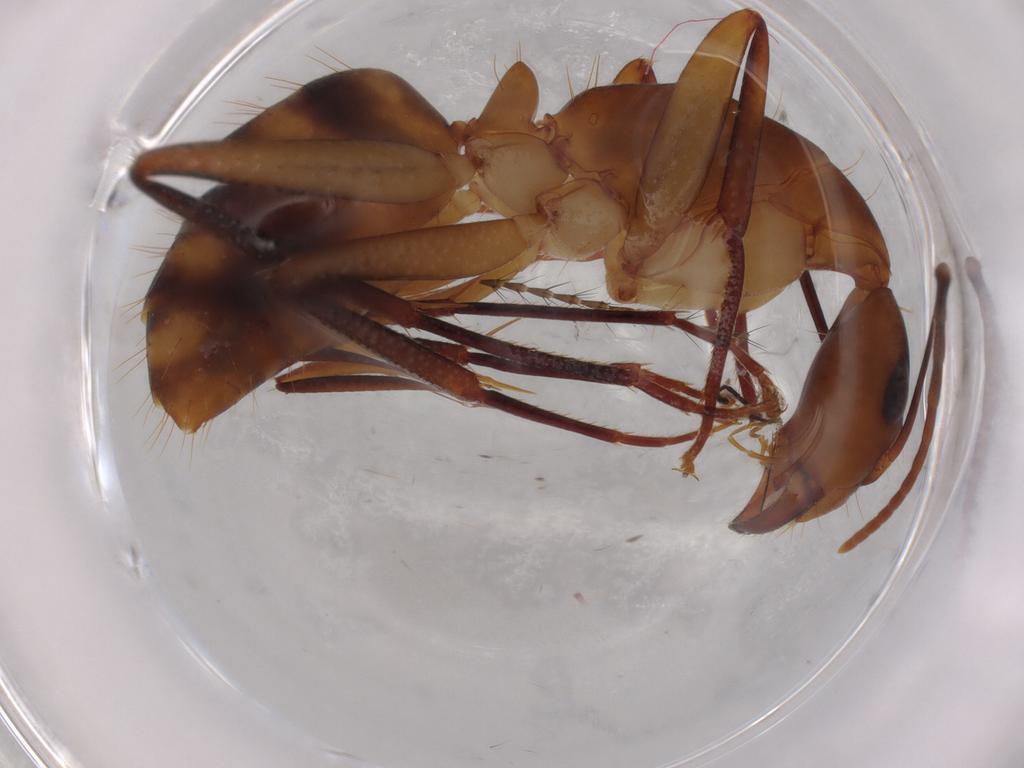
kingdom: Animalia
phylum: Arthropoda
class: Insecta
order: Hymenoptera
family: Formicidae
